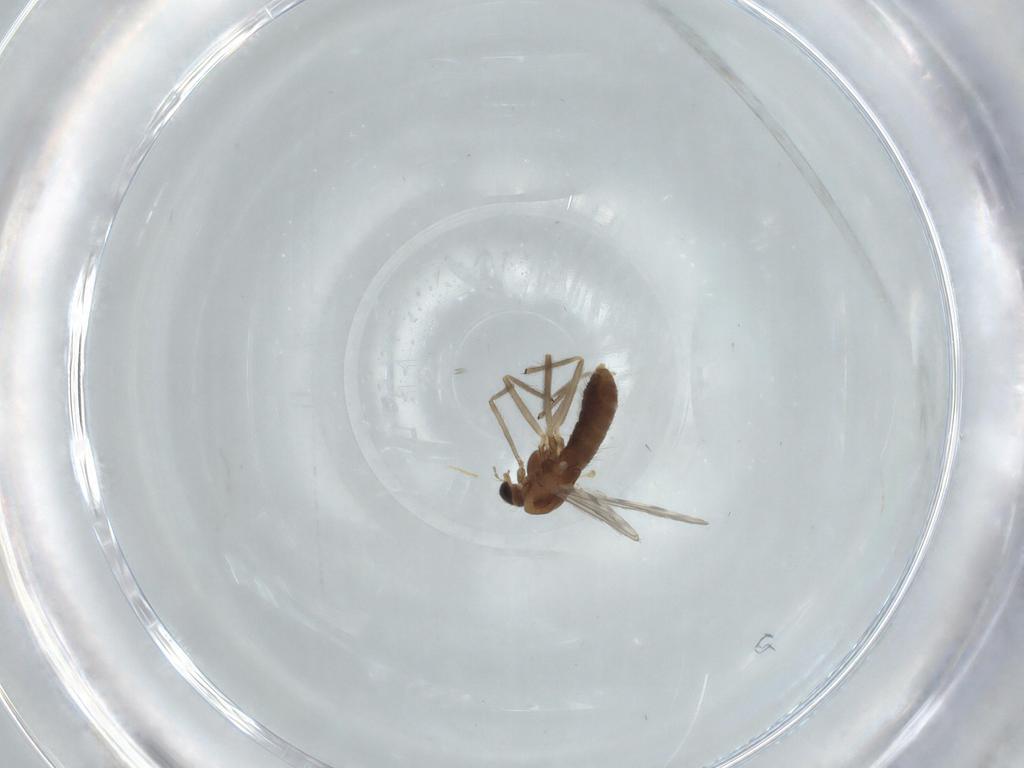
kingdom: Animalia
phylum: Arthropoda
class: Insecta
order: Diptera
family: Chironomidae
